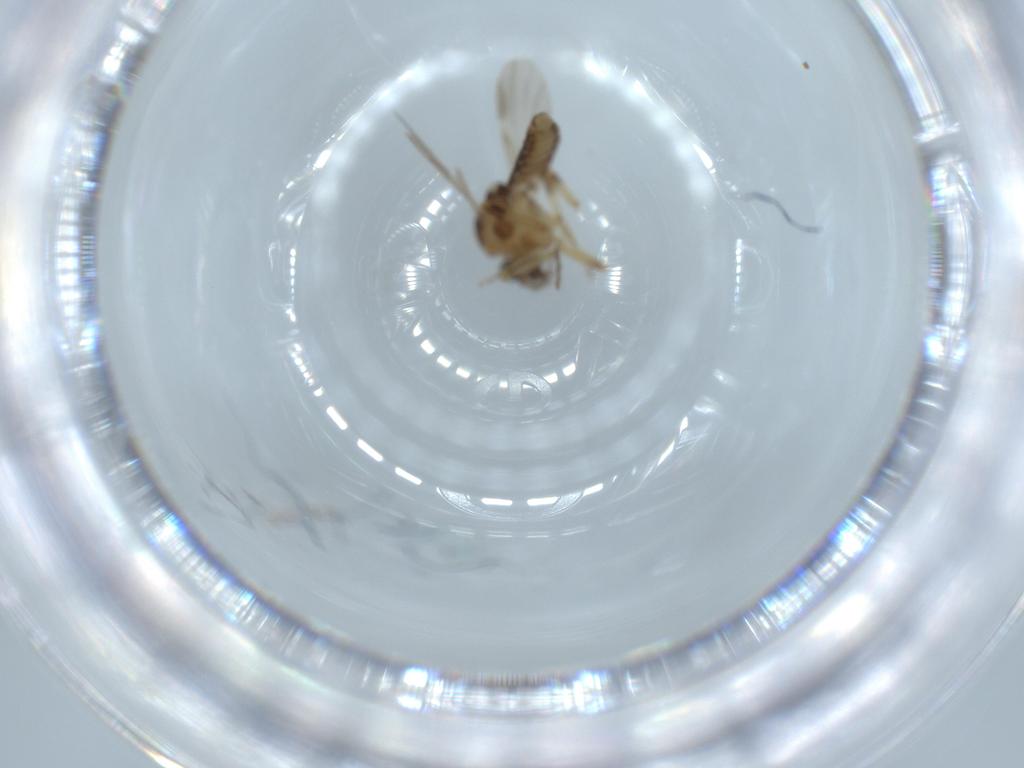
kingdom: Animalia
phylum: Arthropoda
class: Insecta
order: Diptera
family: Ceratopogonidae
